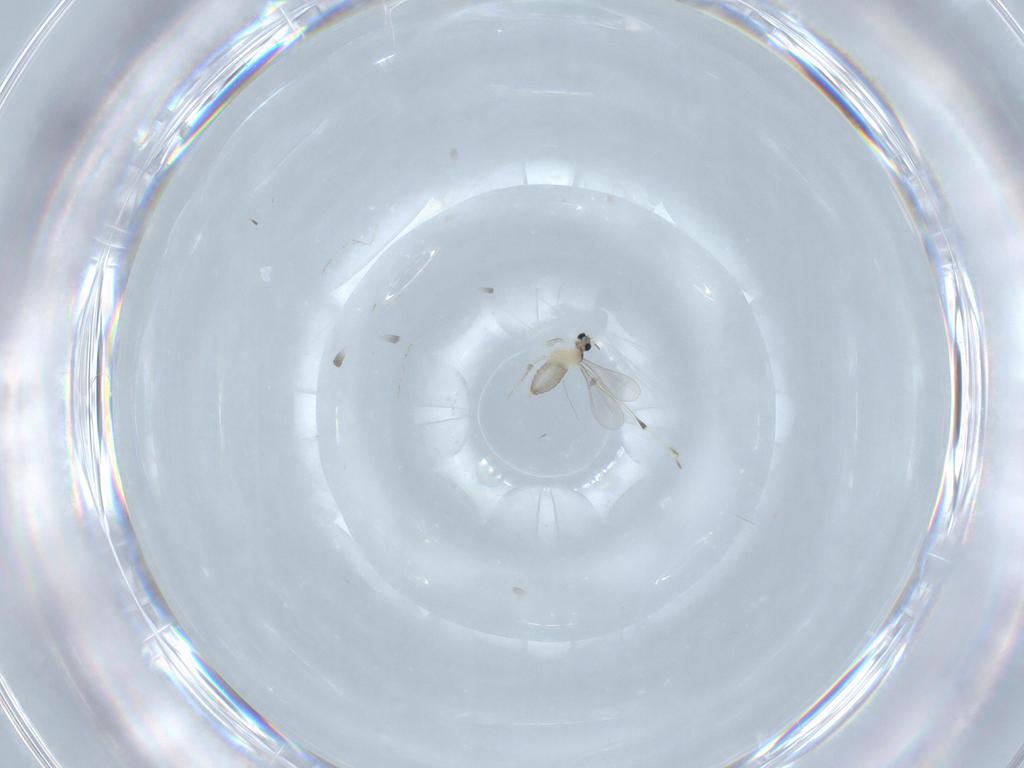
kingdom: Animalia
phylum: Arthropoda
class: Insecta
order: Diptera
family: Cecidomyiidae
